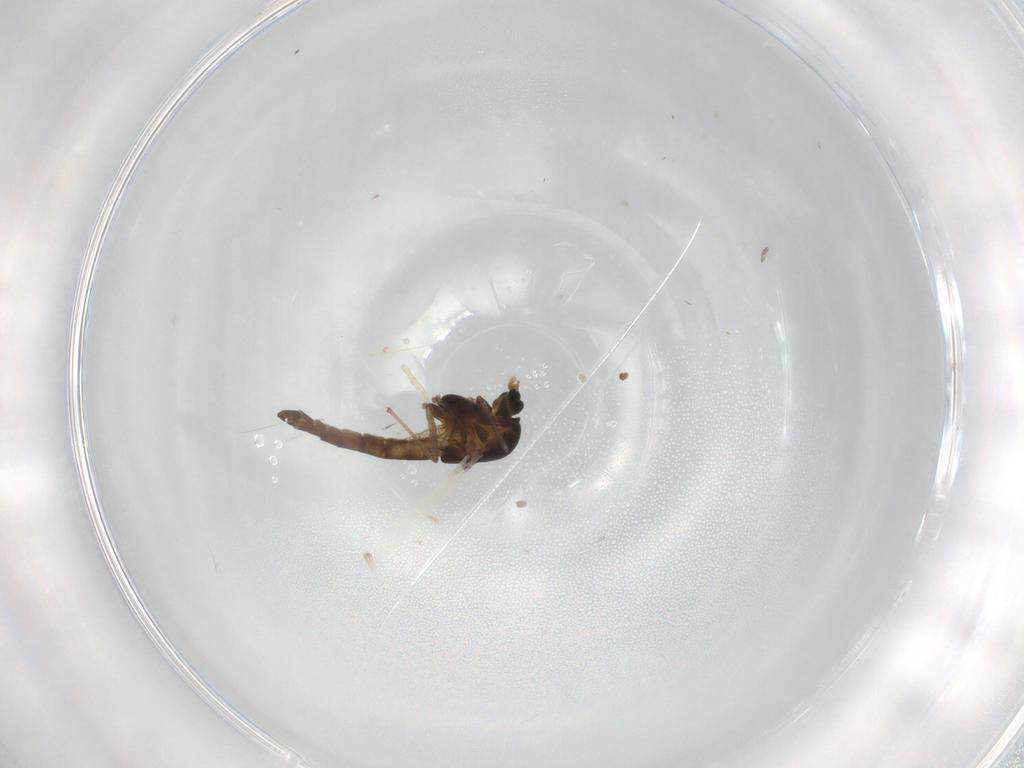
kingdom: Animalia
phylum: Arthropoda
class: Insecta
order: Diptera
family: Chironomidae
